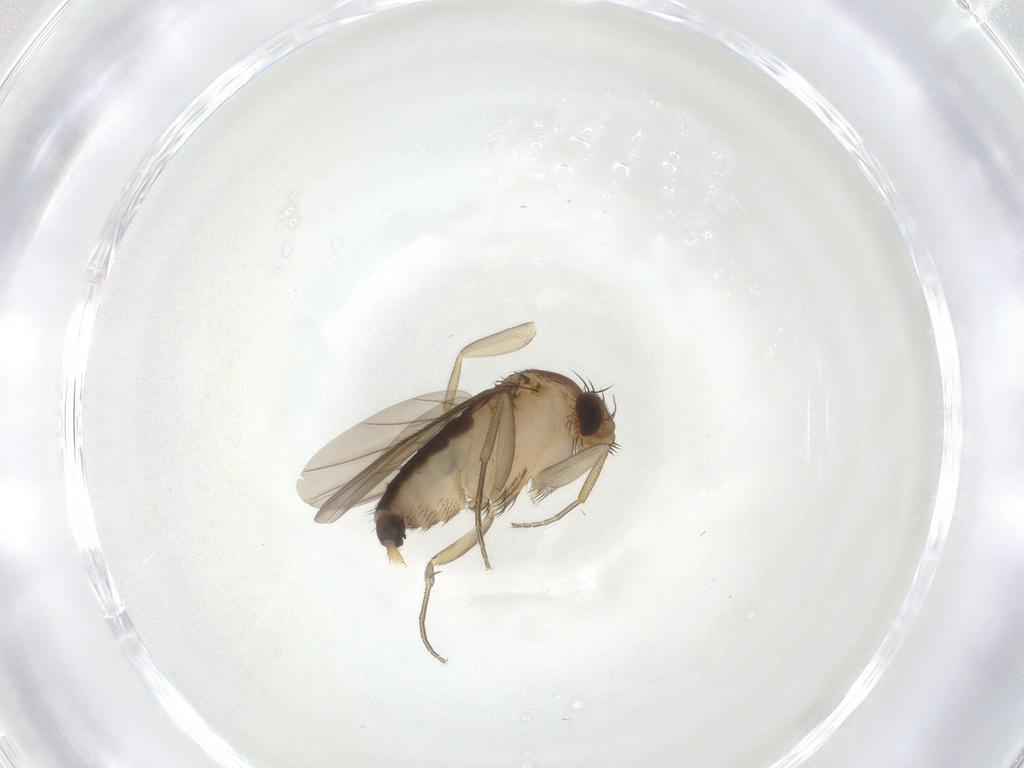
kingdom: Animalia
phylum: Arthropoda
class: Insecta
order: Diptera
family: Phoridae
